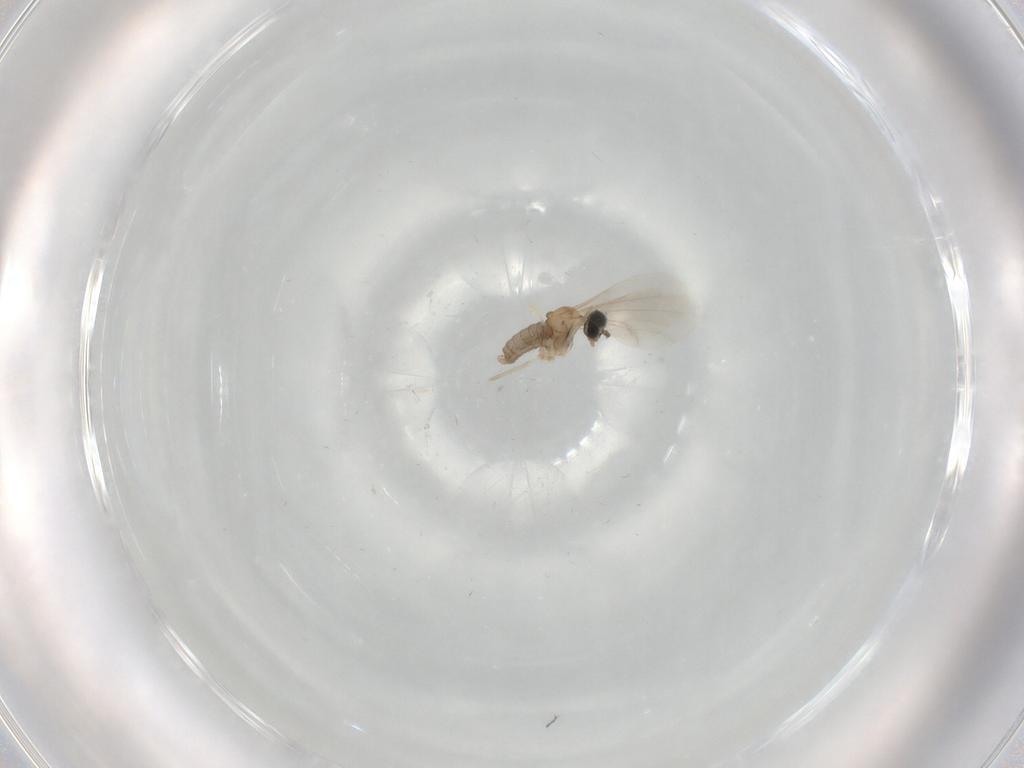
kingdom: Animalia
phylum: Arthropoda
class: Insecta
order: Diptera
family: Cecidomyiidae
